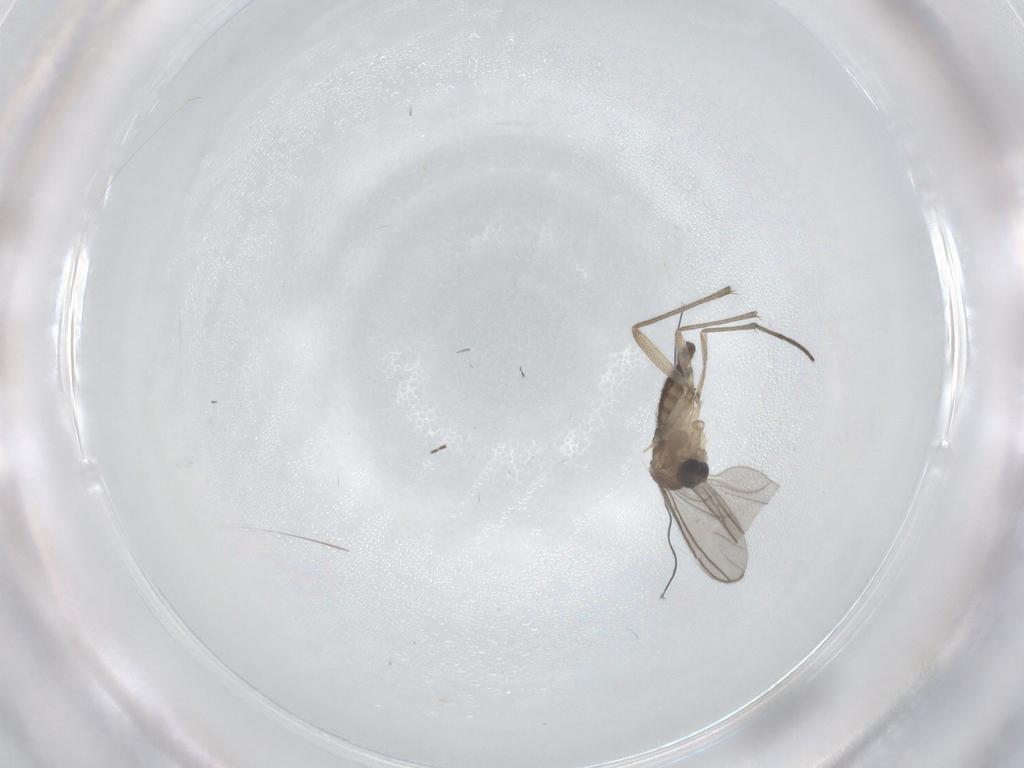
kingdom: Animalia
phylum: Arthropoda
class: Insecta
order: Diptera
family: Sciaridae
